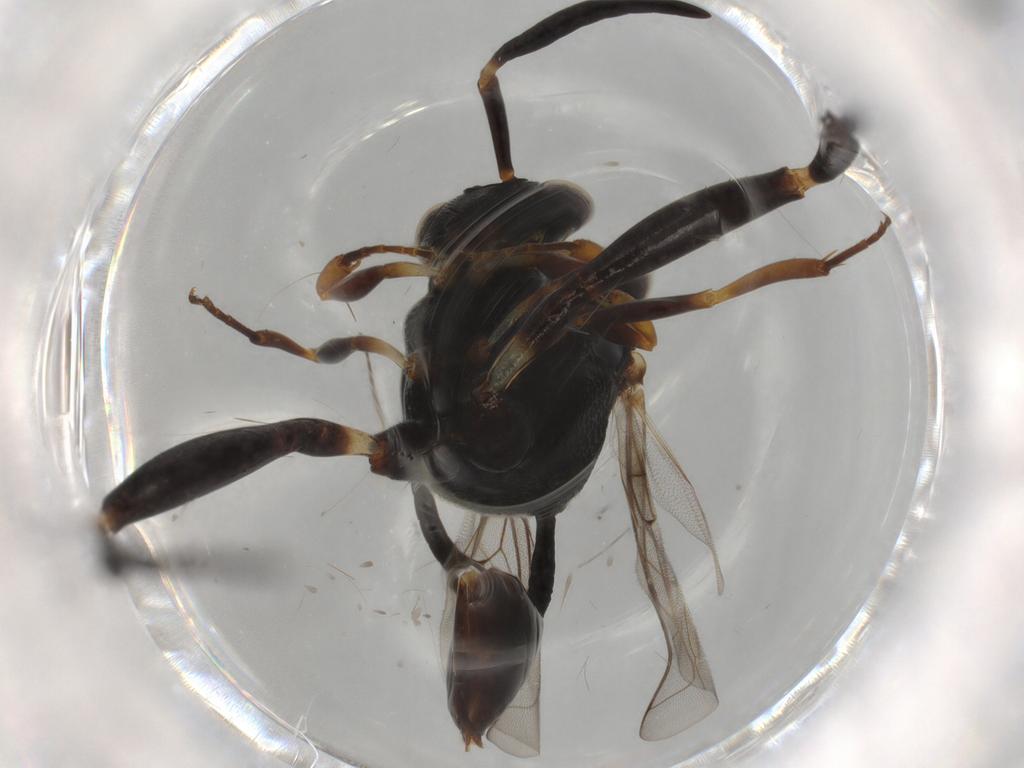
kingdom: Animalia
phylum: Arthropoda
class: Insecta
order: Hymenoptera
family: Evaniidae
